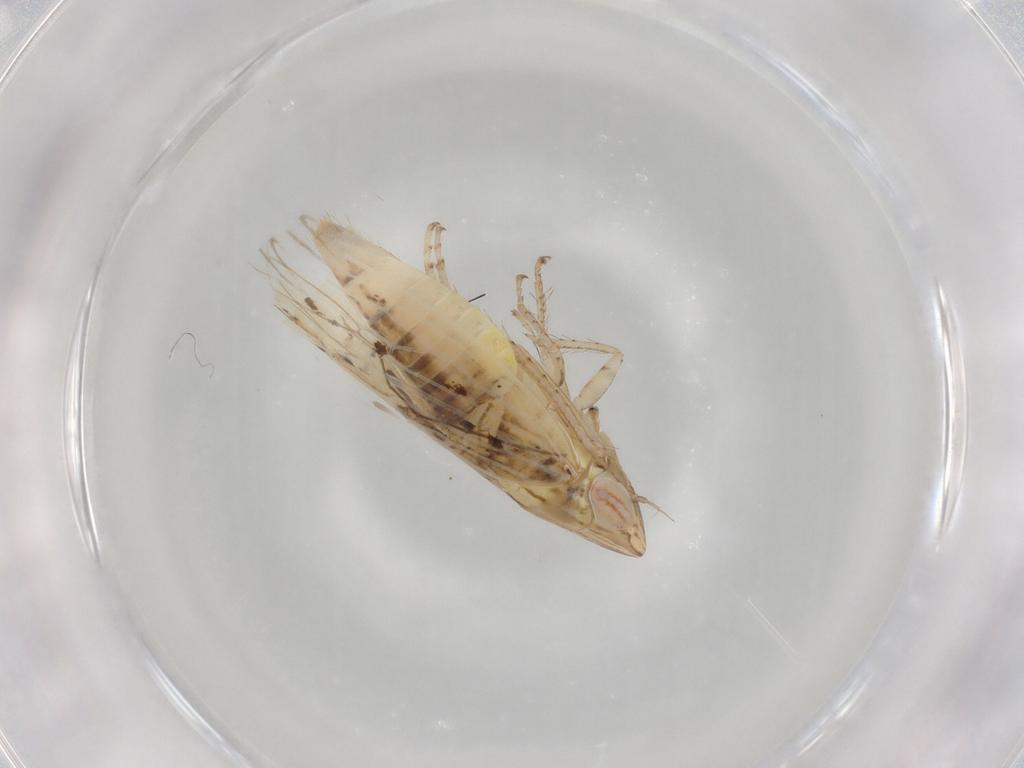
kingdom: Animalia
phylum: Arthropoda
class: Insecta
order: Hemiptera
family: Cicadellidae
